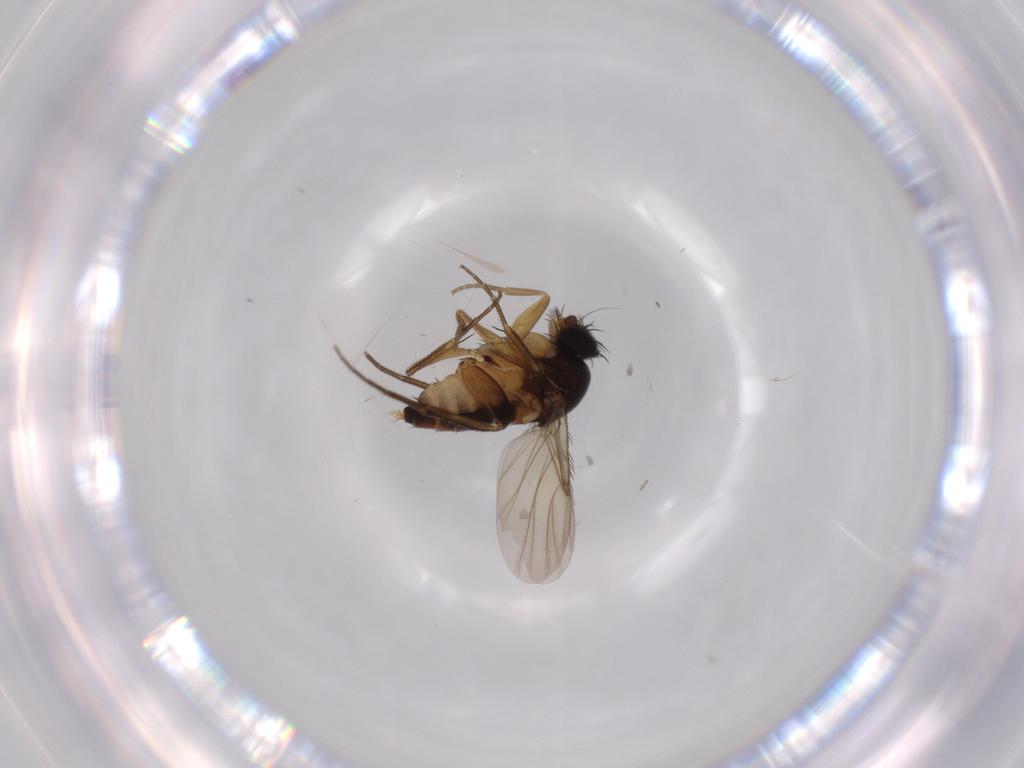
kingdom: Animalia
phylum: Arthropoda
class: Insecta
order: Diptera
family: Phoridae
